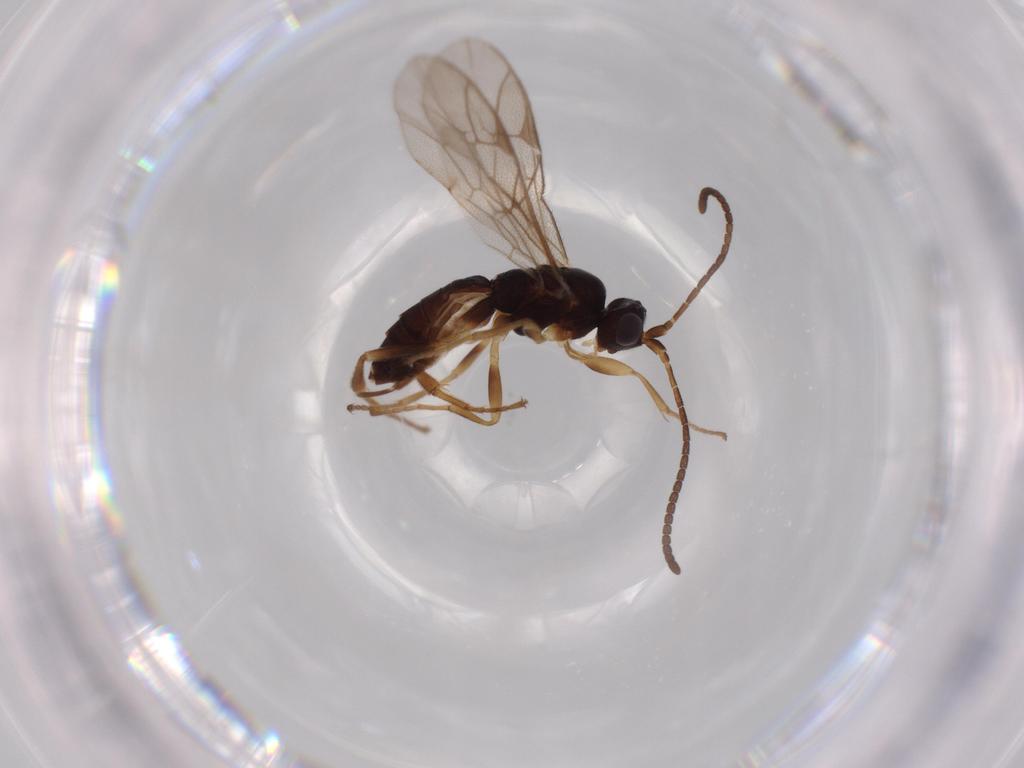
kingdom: Animalia
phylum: Arthropoda
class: Insecta
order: Hymenoptera
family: Ichneumonidae
